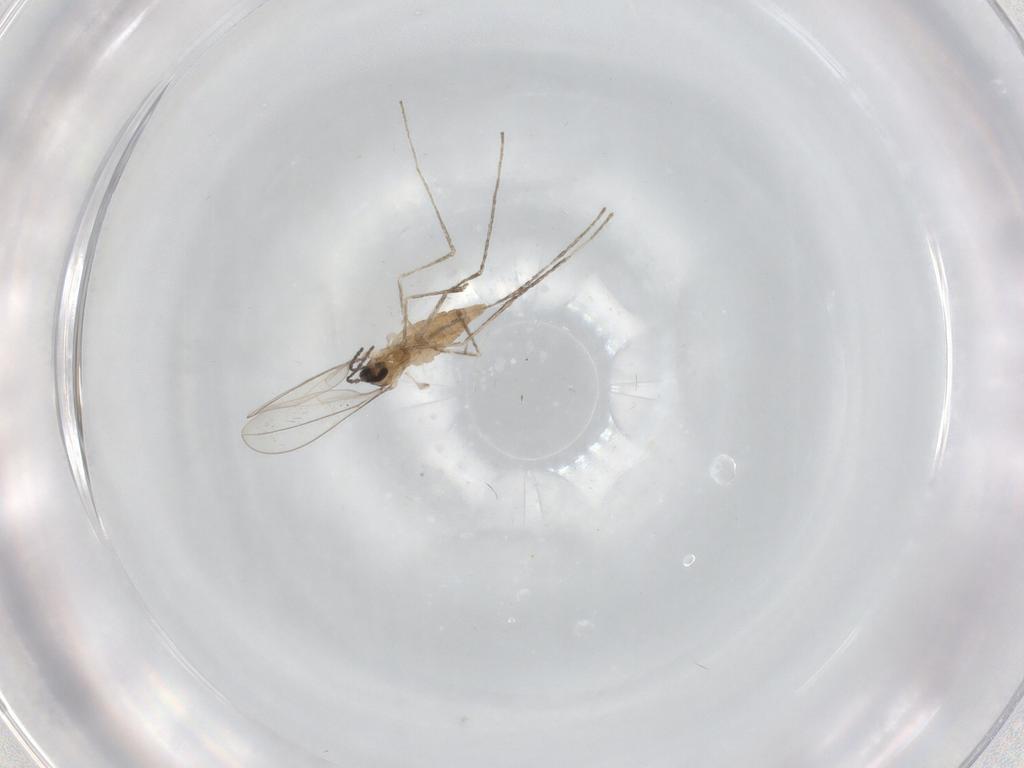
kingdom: Animalia
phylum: Arthropoda
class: Insecta
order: Diptera
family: Cecidomyiidae
